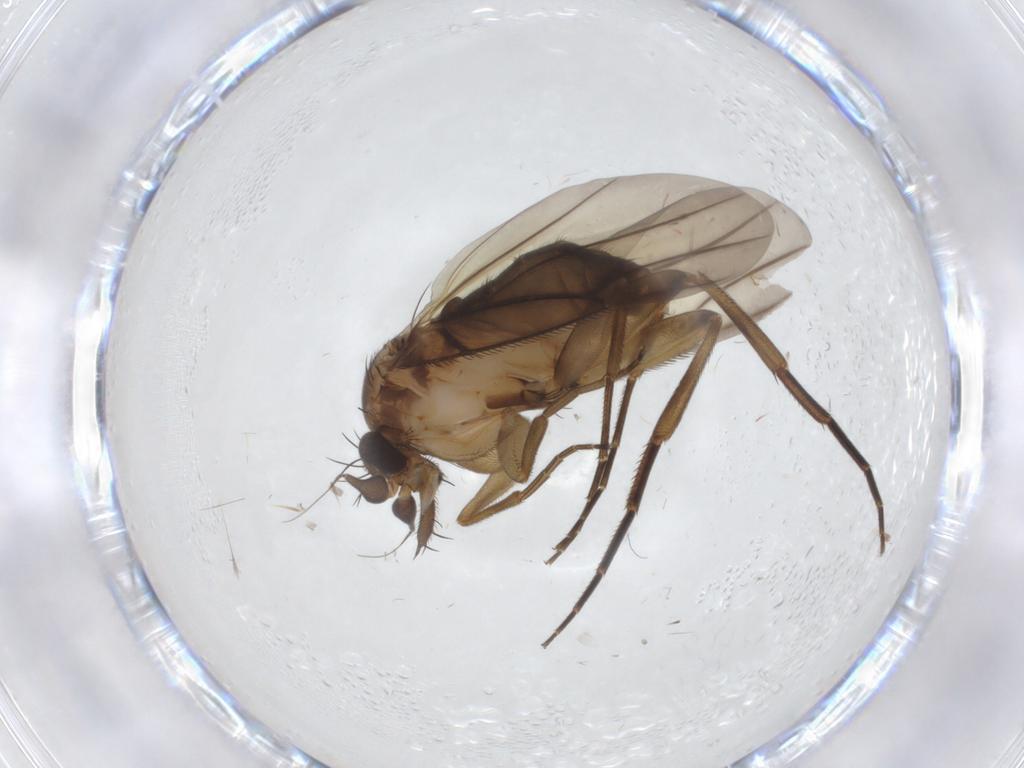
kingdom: Animalia
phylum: Arthropoda
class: Insecta
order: Diptera
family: Phoridae
